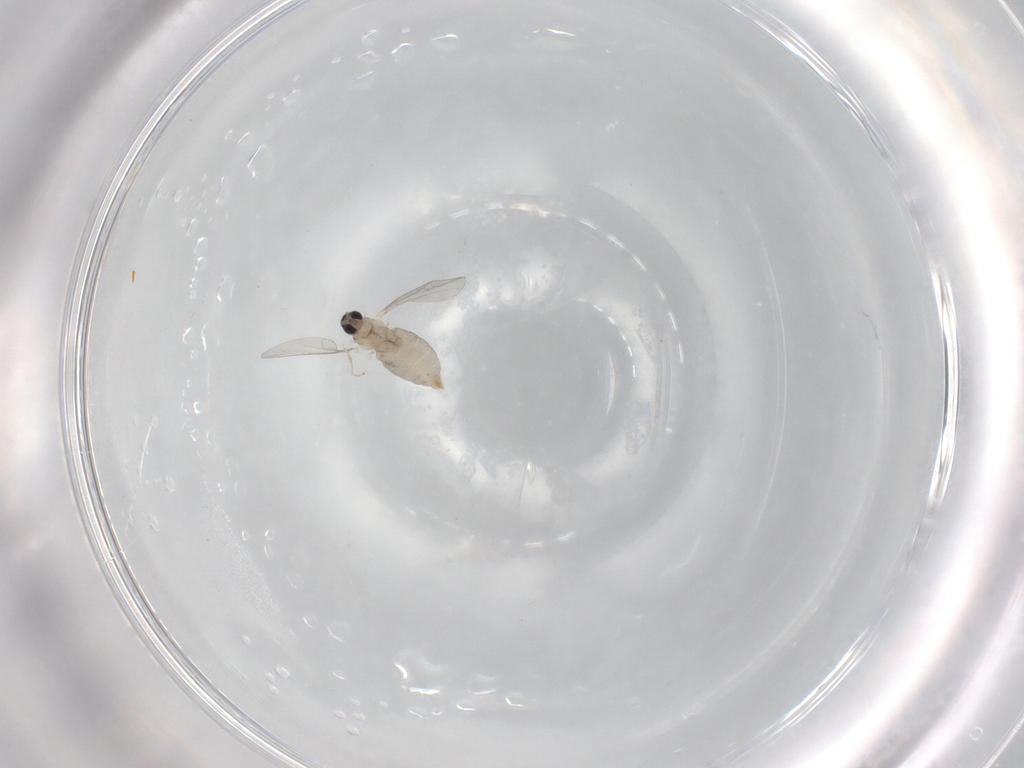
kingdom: Animalia
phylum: Arthropoda
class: Insecta
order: Diptera
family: Cecidomyiidae
